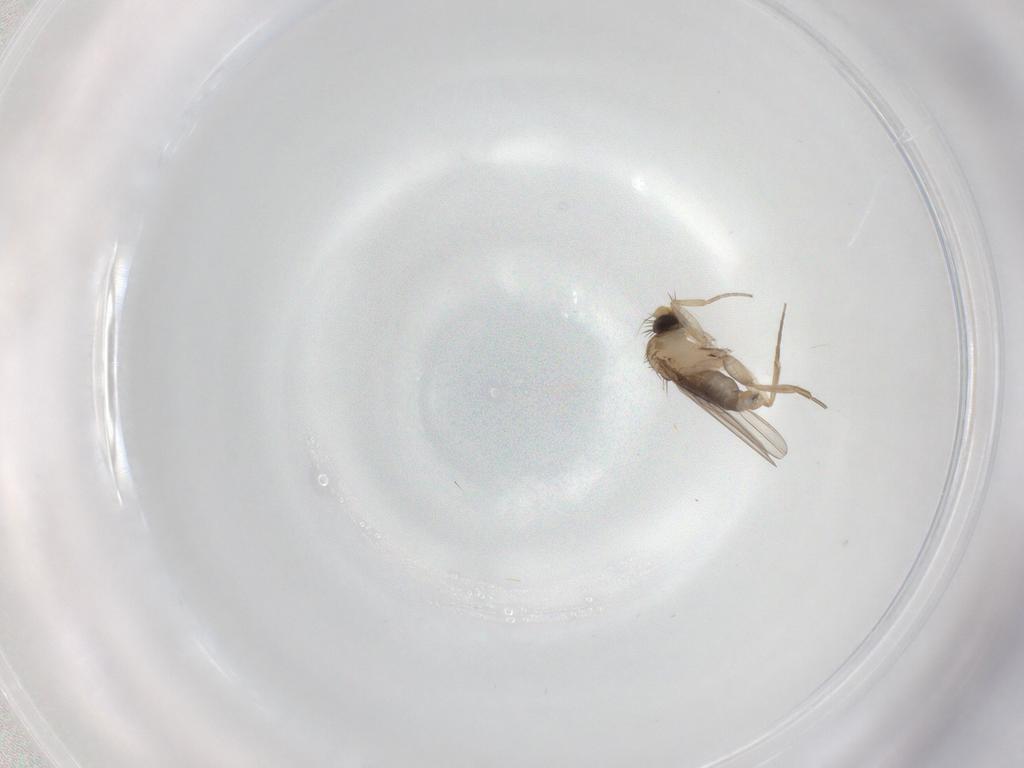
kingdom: Animalia
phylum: Arthropoda
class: Insecta
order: Diptera
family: Phoridae
